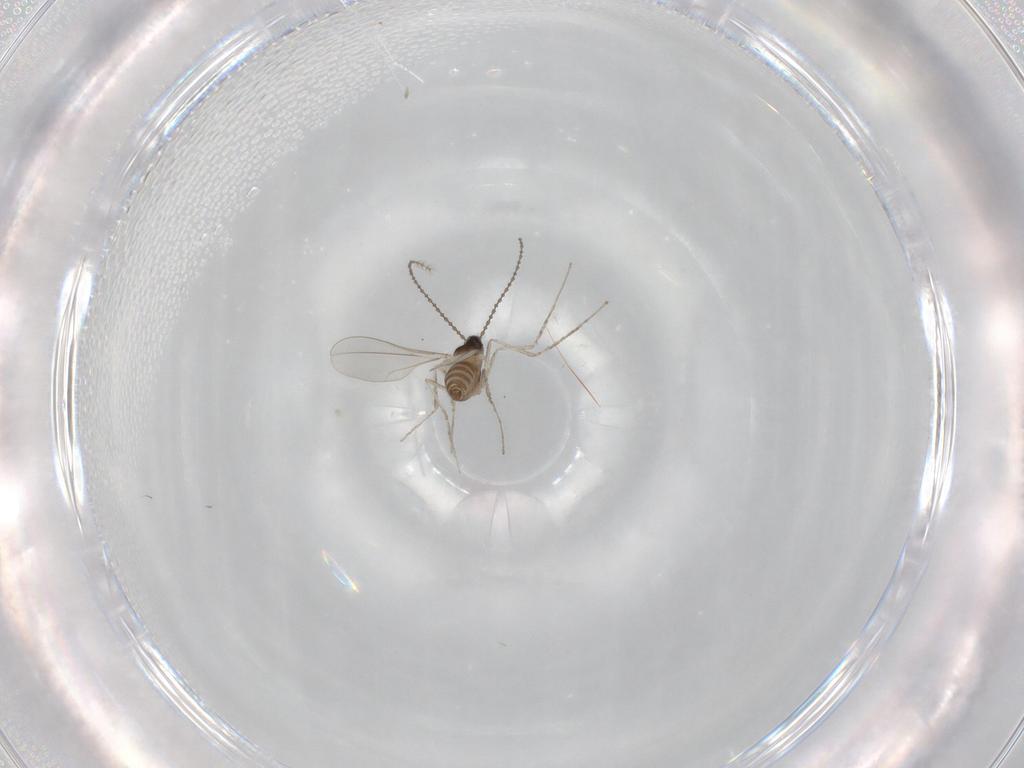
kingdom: Animalia
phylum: Arthropoda
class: Insecta
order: Diptera
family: Cecidomyiidae
